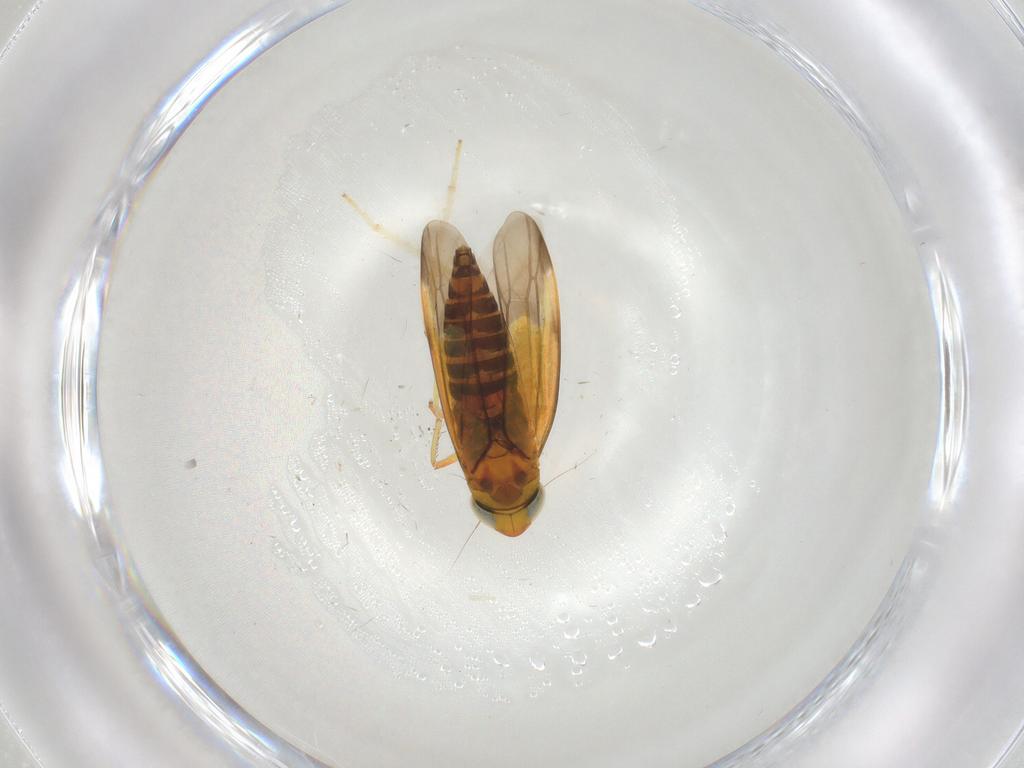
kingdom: Animalia
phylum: Arthropoda
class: Insecta
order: Hemiptera
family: Cicadellidae
